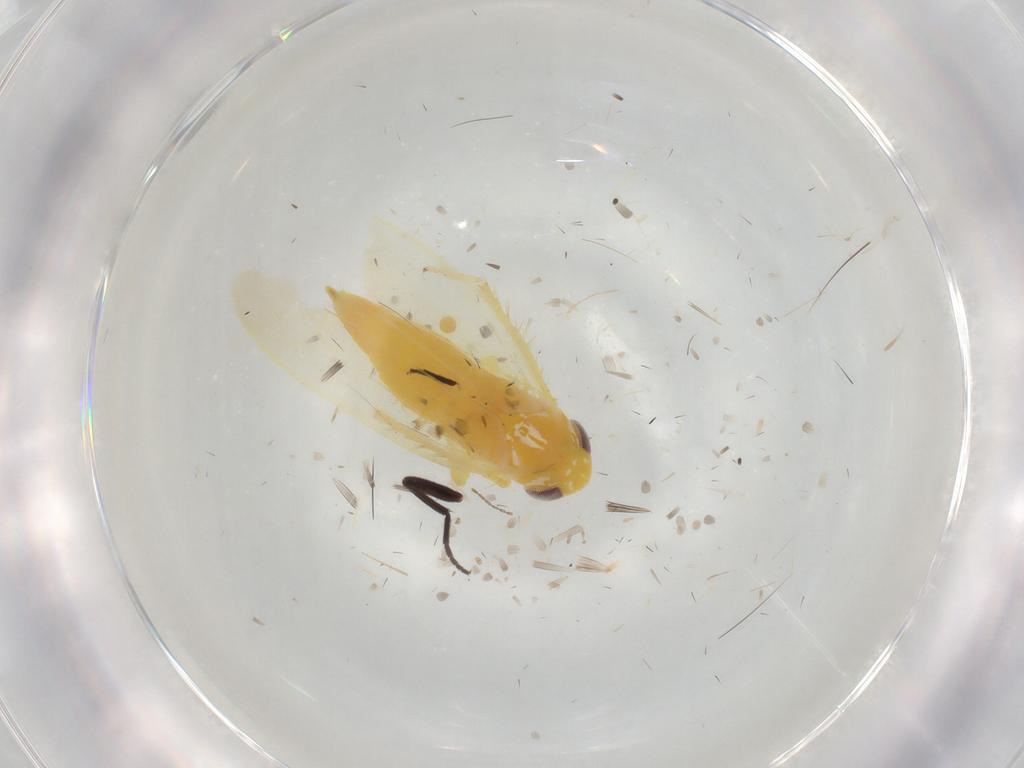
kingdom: Animalia
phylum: Arthropoda
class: Insecta
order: Hemiptera
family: Cicadellidae
